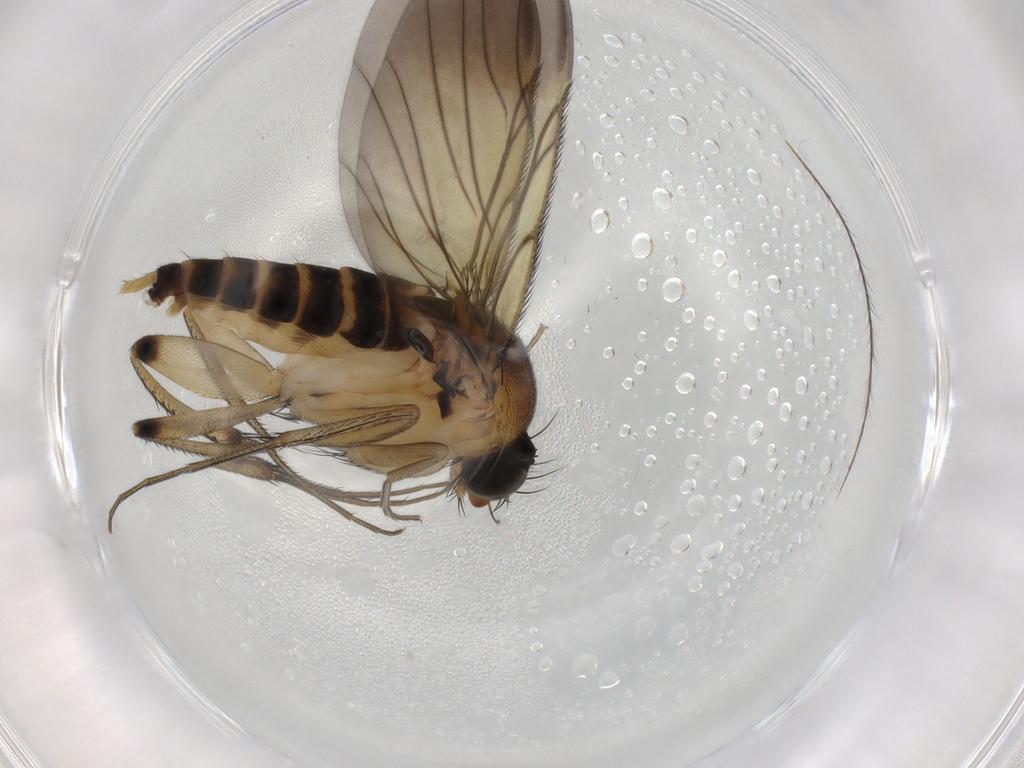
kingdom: Animalia
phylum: Arthropoda
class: Insecta
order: Diptera
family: Phoridae
